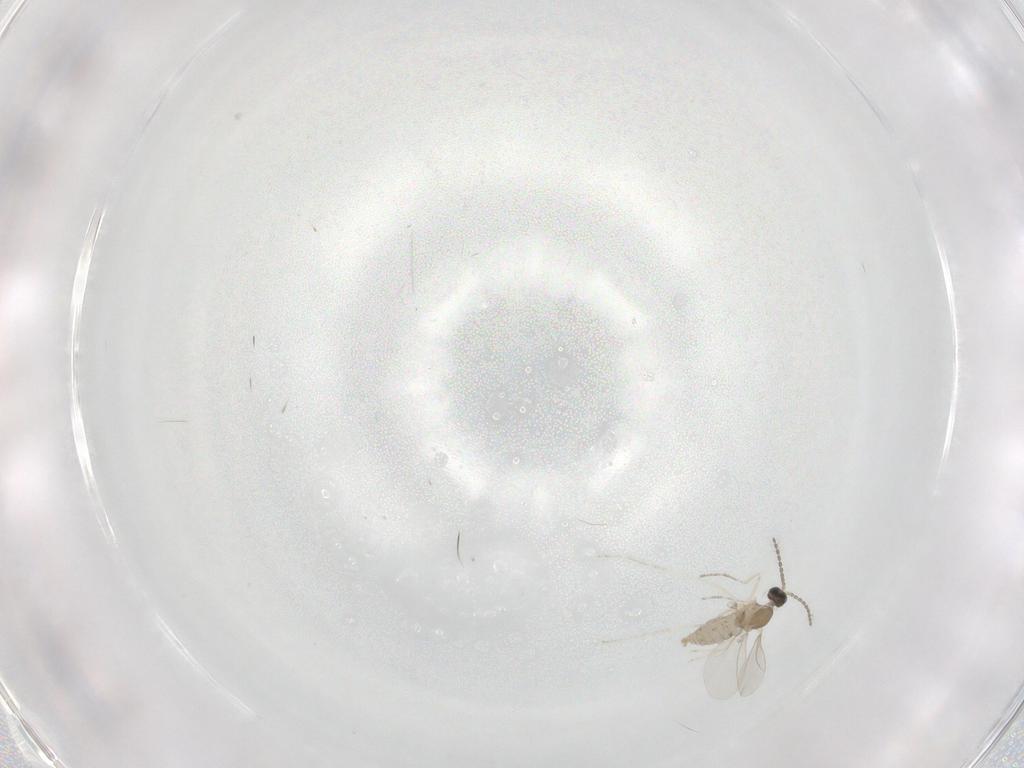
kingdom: Animalia
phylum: Arthropoda
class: Insecta
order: Diptera
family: Cecidomyiidae
